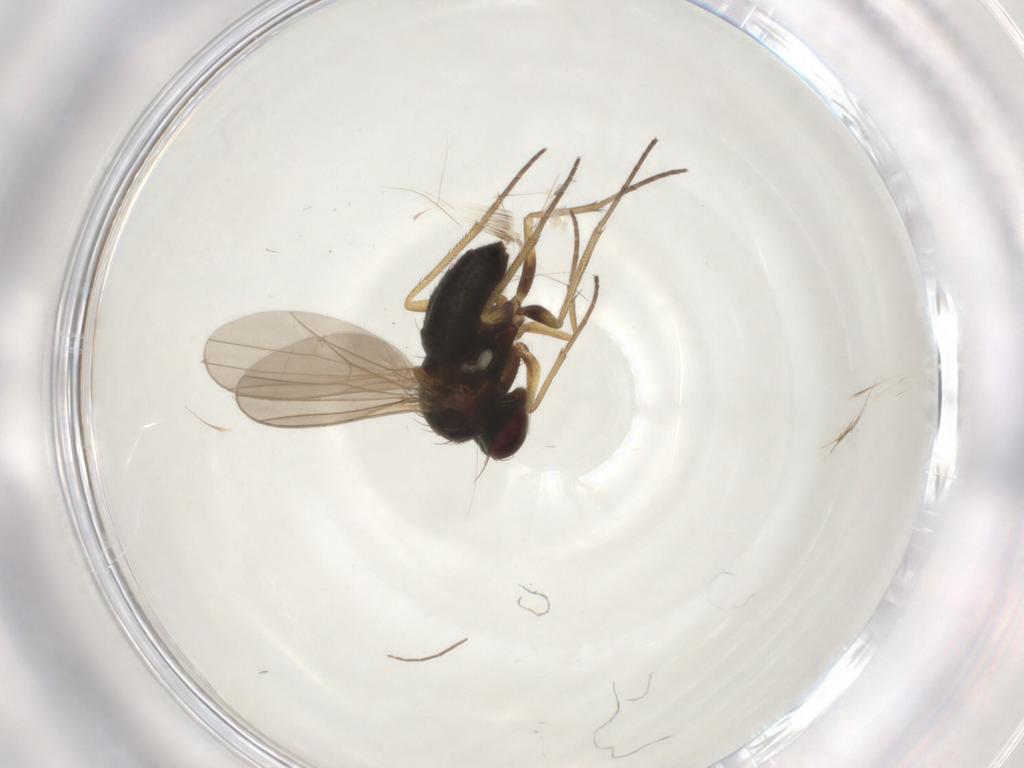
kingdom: Animalia
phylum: Arthropoda
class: Insecta
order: Diptera
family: Dolichopodidae
